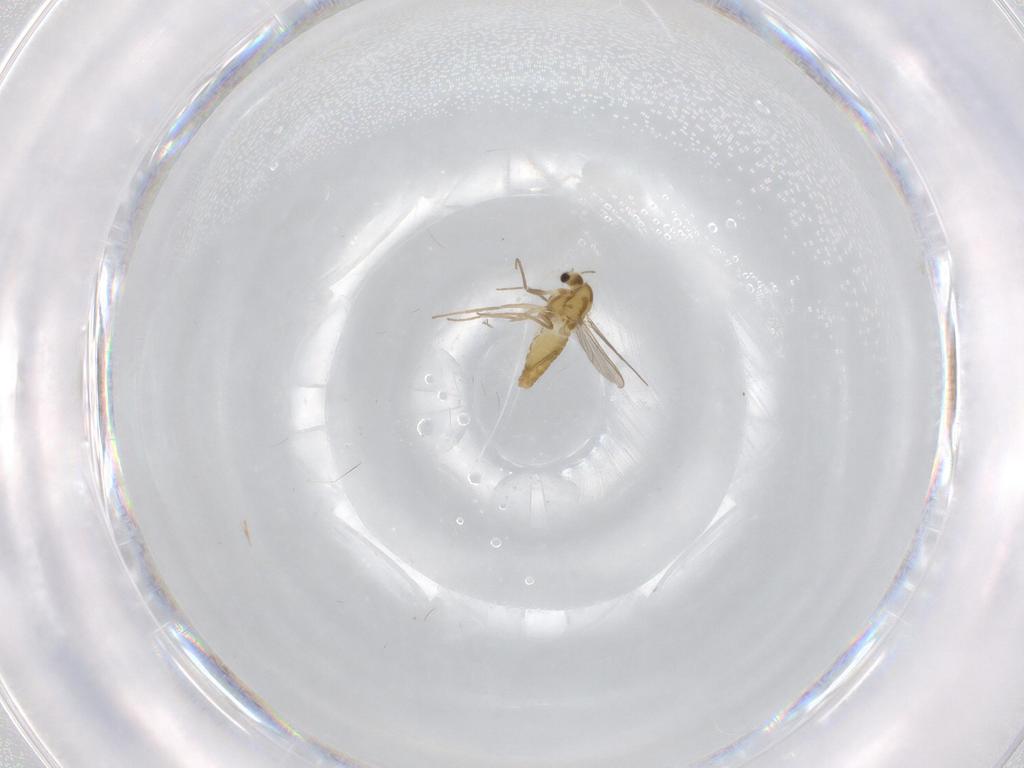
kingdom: Animalia
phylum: Arthropoda
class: Insecta
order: Diptera
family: Chironomidae
